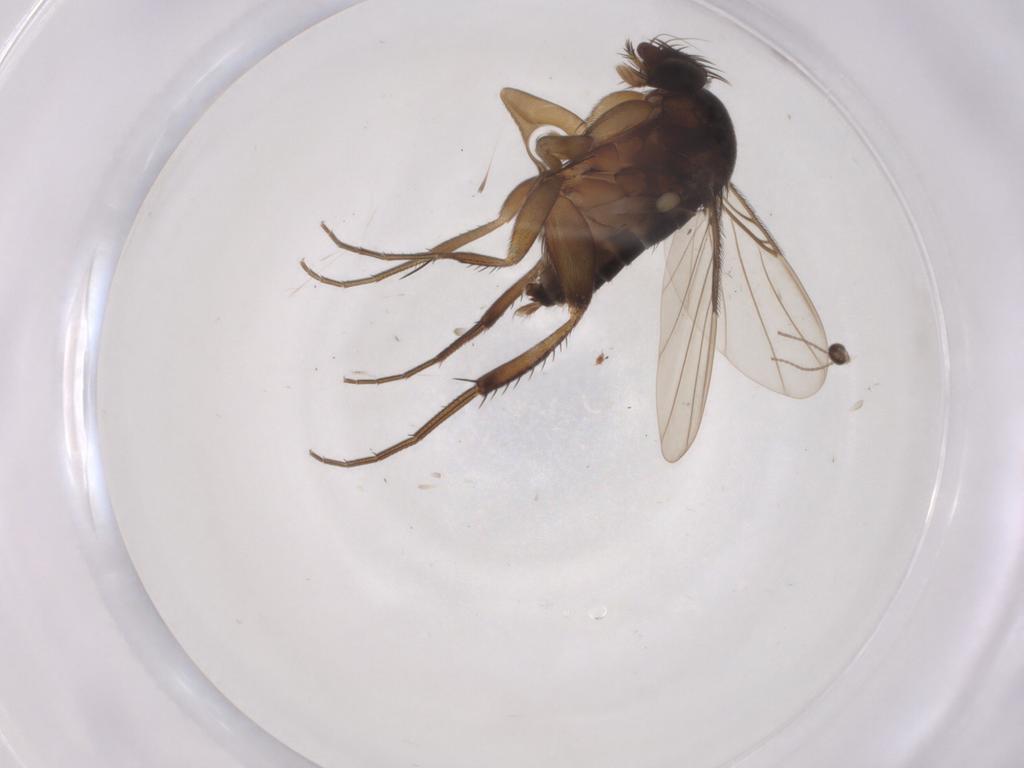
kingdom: Animalia
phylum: Arthropoda
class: Insecta
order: Diptera
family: Phoridae
